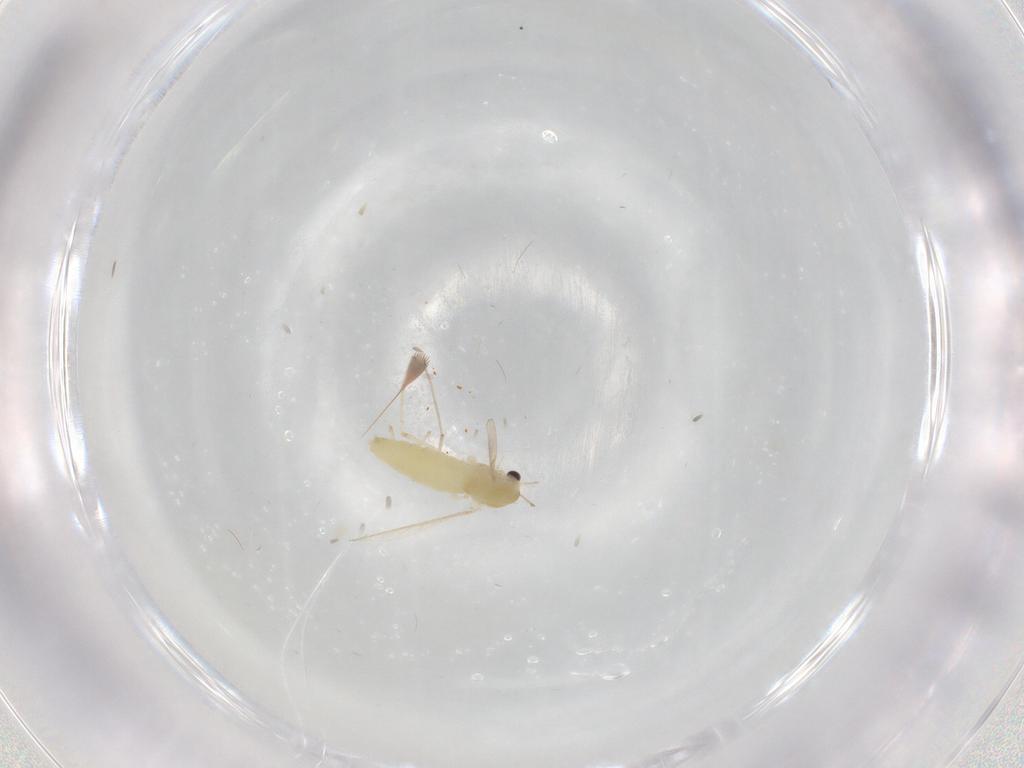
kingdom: Animalia
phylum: Arthropoda
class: Insecta
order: Diptera
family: Chironomidae
